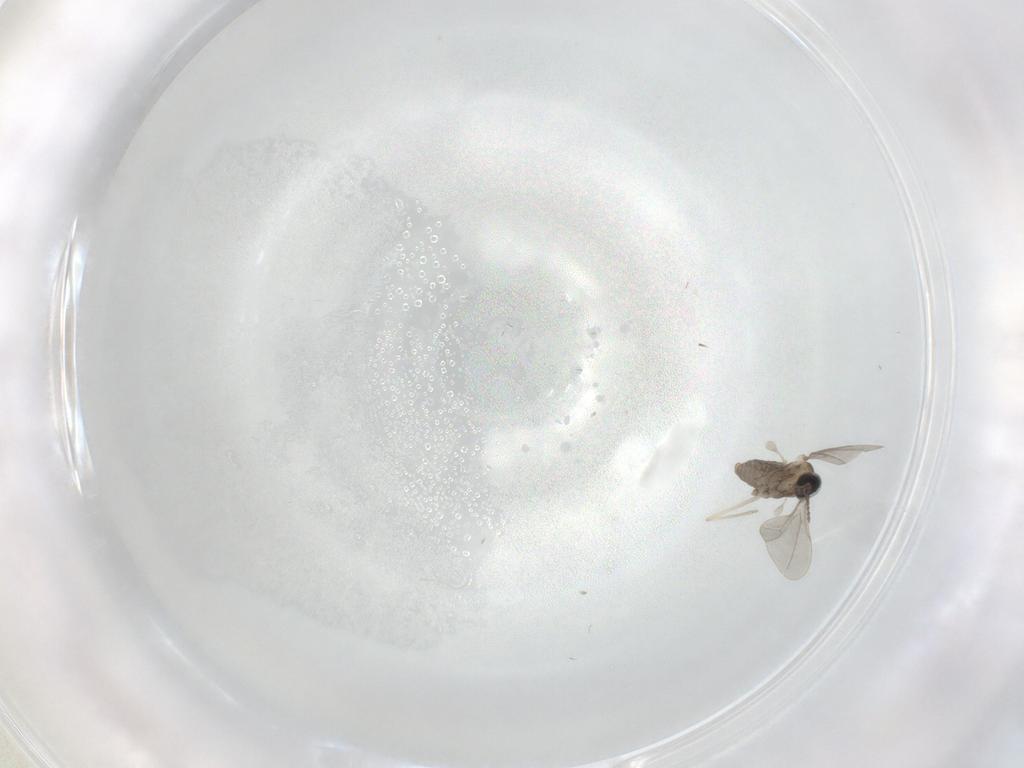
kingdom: Animalia
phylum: Arthropoda
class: Insecta
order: Diptera
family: Cecidomyiidae
